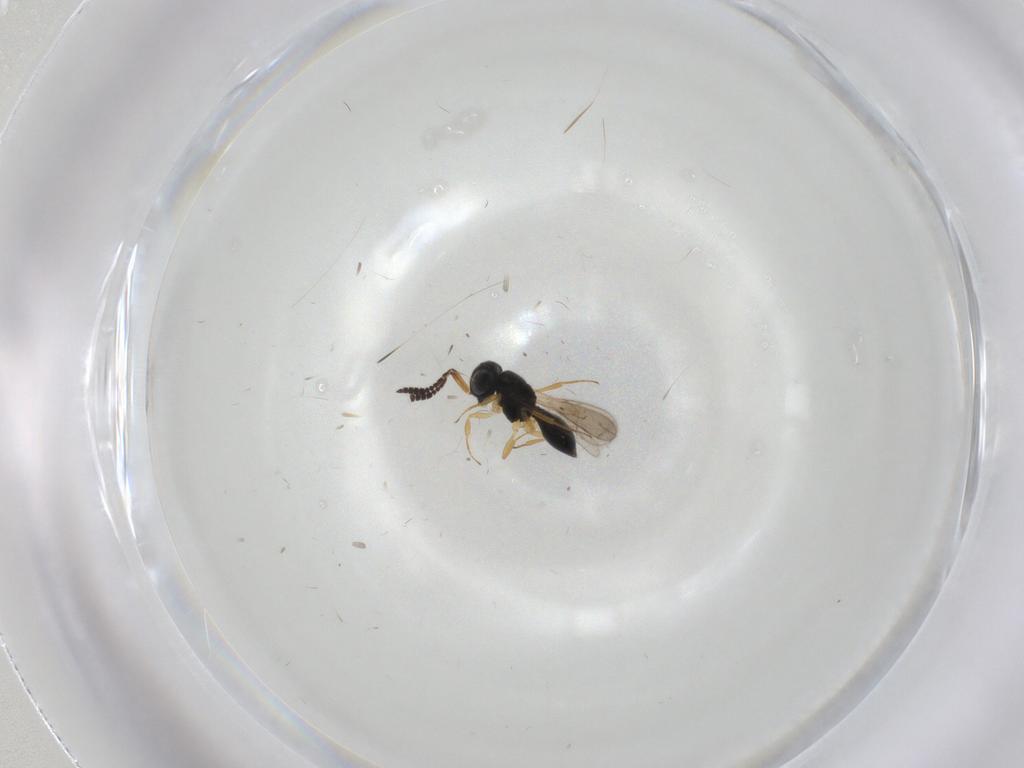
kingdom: Animalia
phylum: Arthropoda
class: Insecta
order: Hymenoptera
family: Scelionidae
